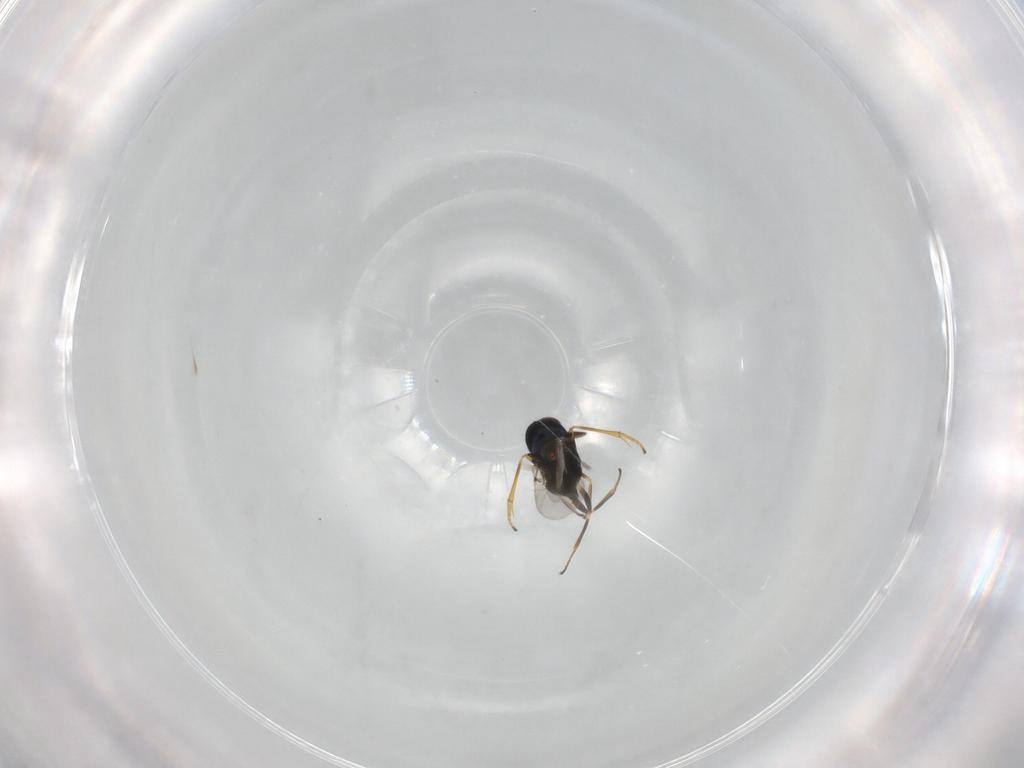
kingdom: Animalia
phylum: Arthropoda
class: Insecta
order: Hymenoptera
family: Encyrtidae
